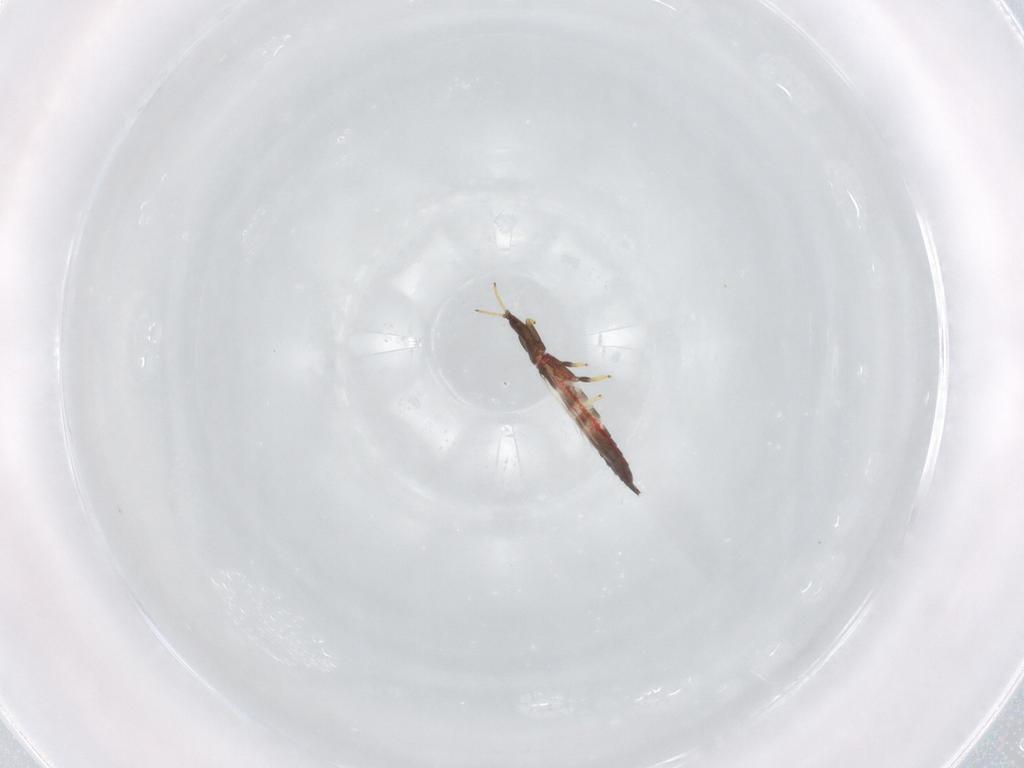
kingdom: Animalia
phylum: Arthropoda
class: Insecta
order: Thysanoptera
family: Phlaeothripidae
